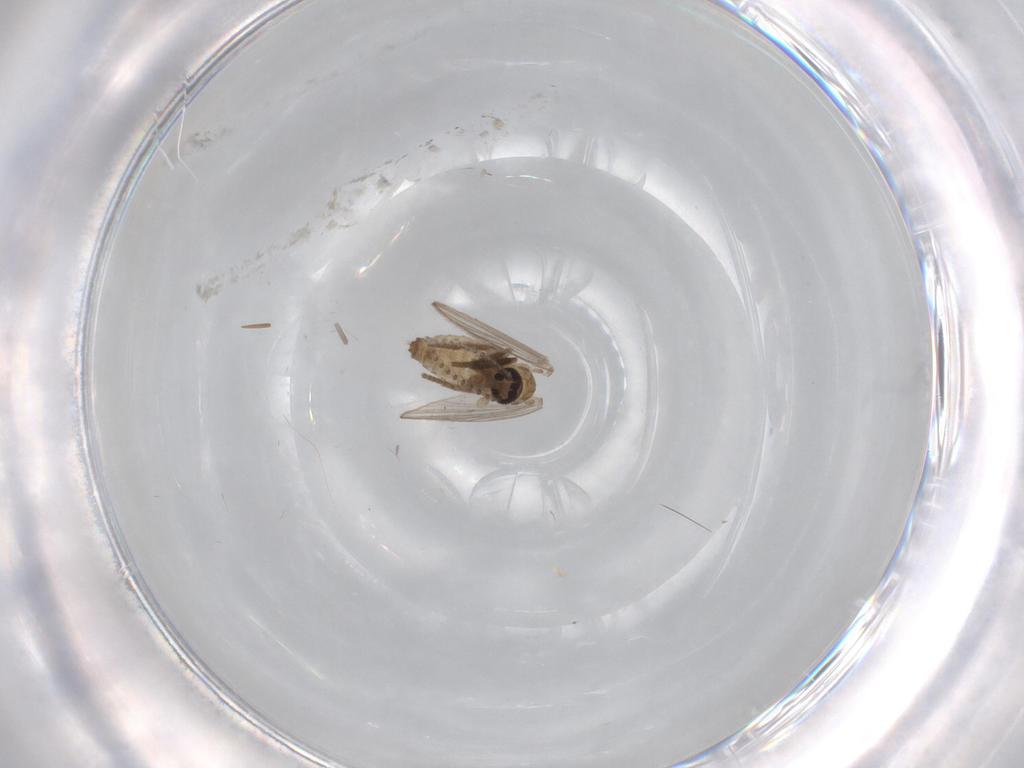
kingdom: Animalia
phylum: Arthropoda
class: Insecta
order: Diptera
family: Psychodidae
